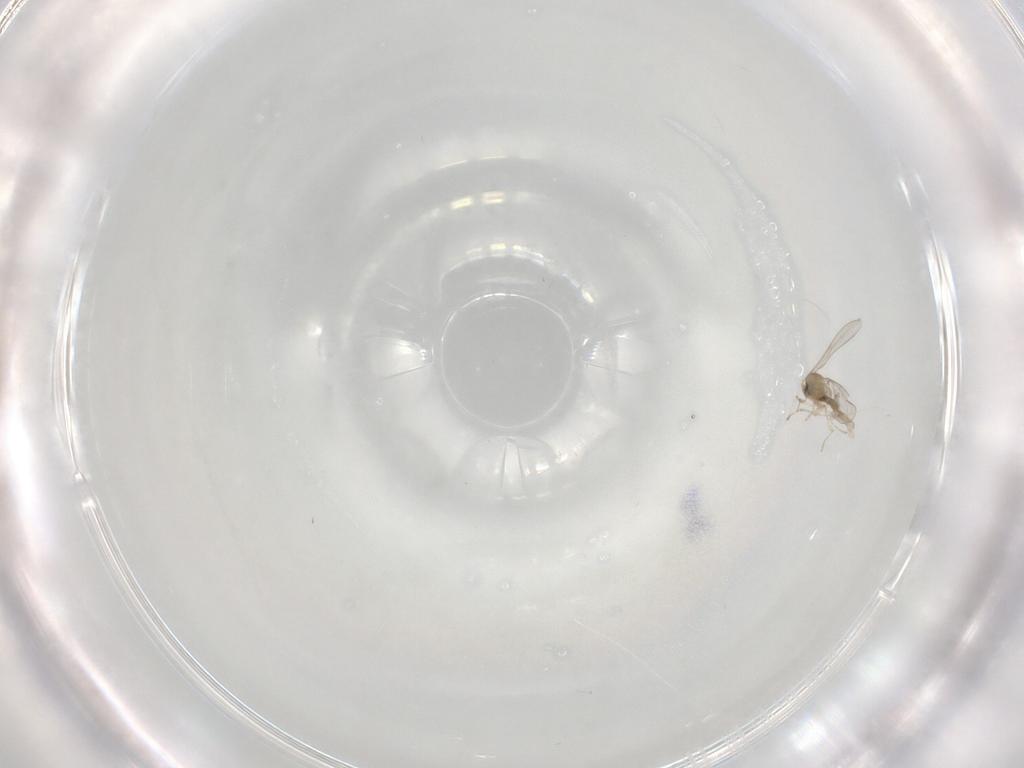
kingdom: Animalia
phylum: Arthropoda
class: Insecta
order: Diptera
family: Cecidomyiidae
